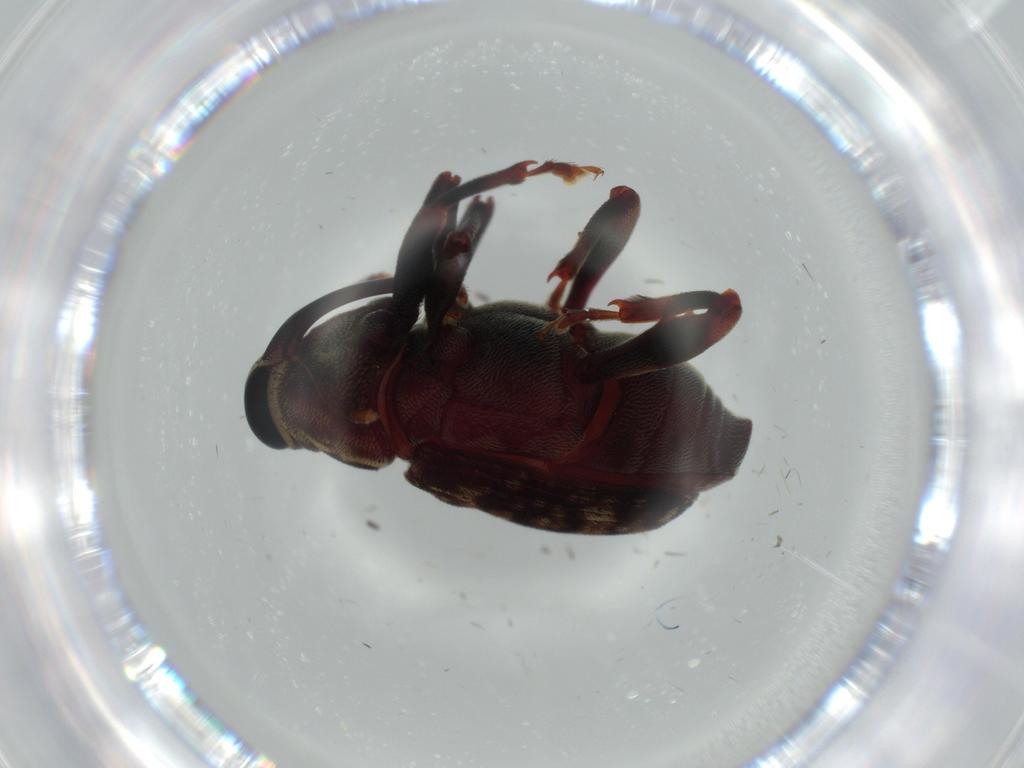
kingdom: Animalia
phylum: Arthropoda
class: Insecta
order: Coleoptera
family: Curculionidae
